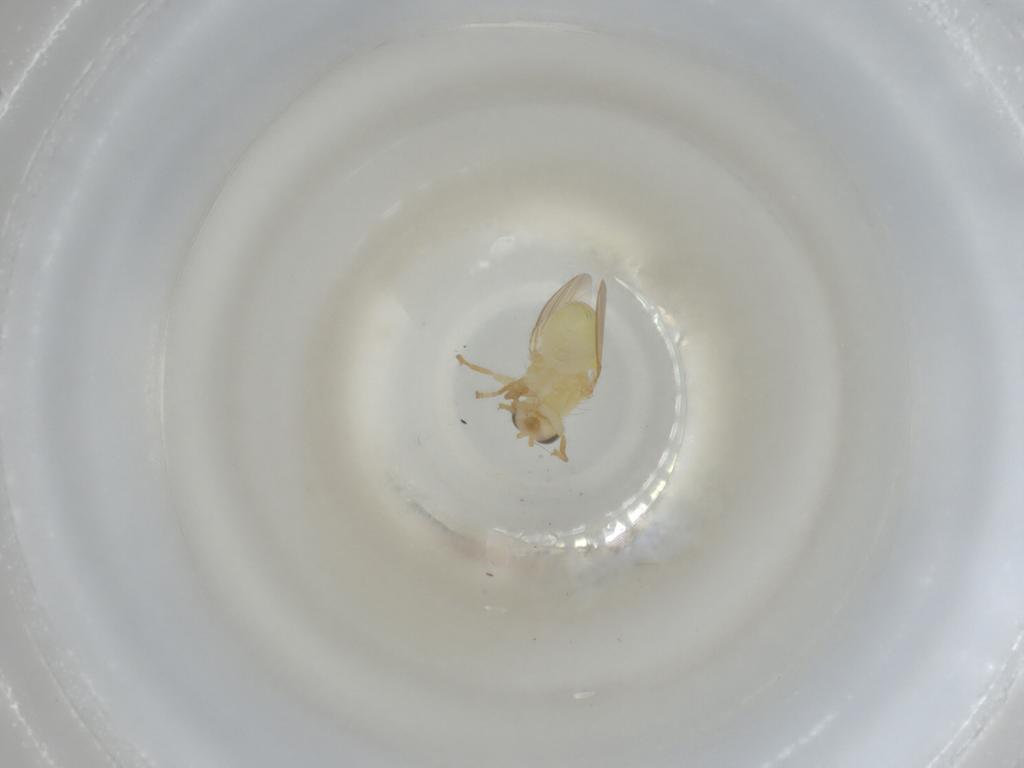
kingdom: Animalia
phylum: Arthropoda
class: Insecta
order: Diptera
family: Chyromyidae
